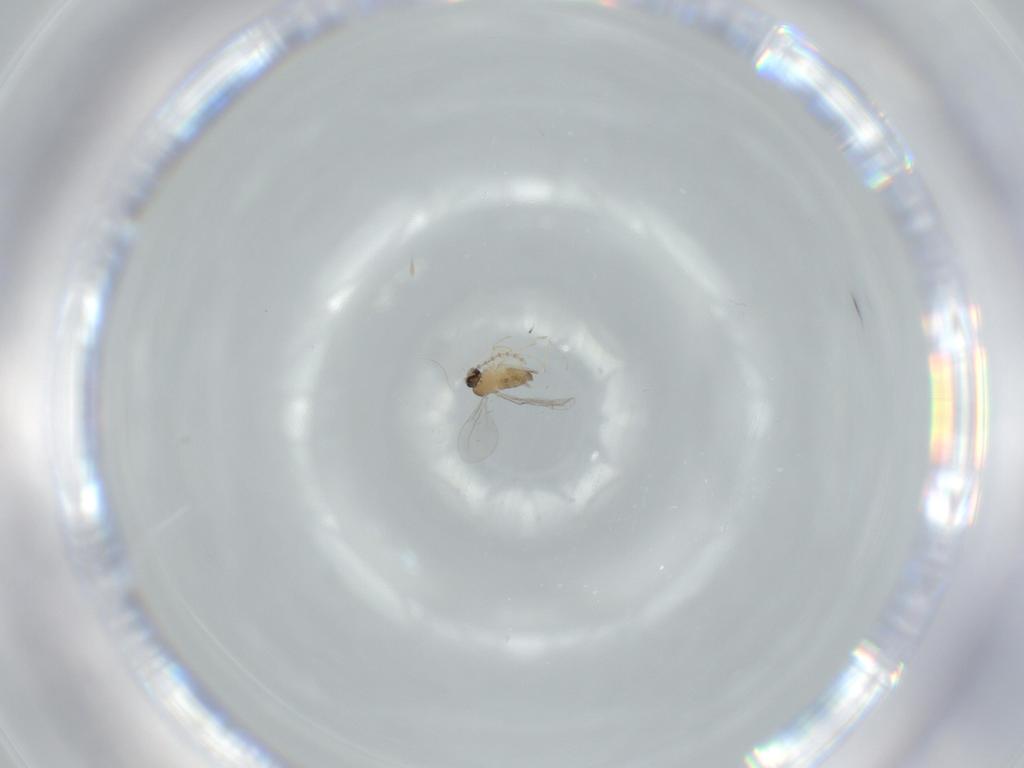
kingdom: Animalia
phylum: Arthropoda
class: Insecta
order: Diptera
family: Cecidomyiidae
